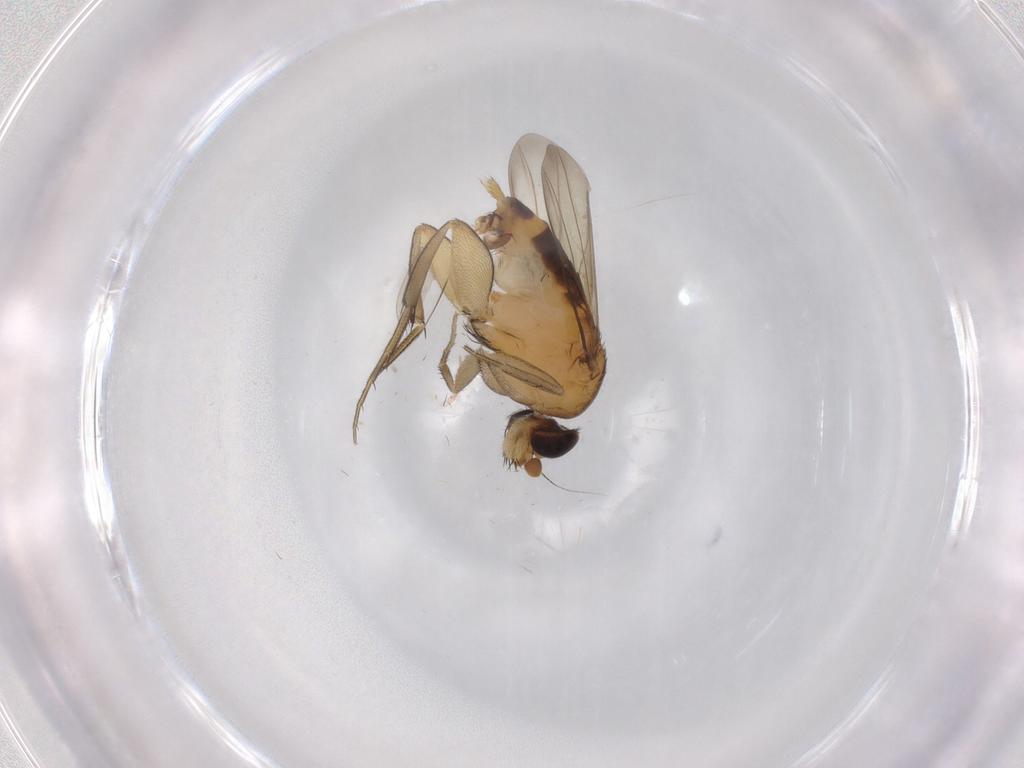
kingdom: Animalia
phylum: Arthropoda
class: Insecta
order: Diptera
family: Phoridae
